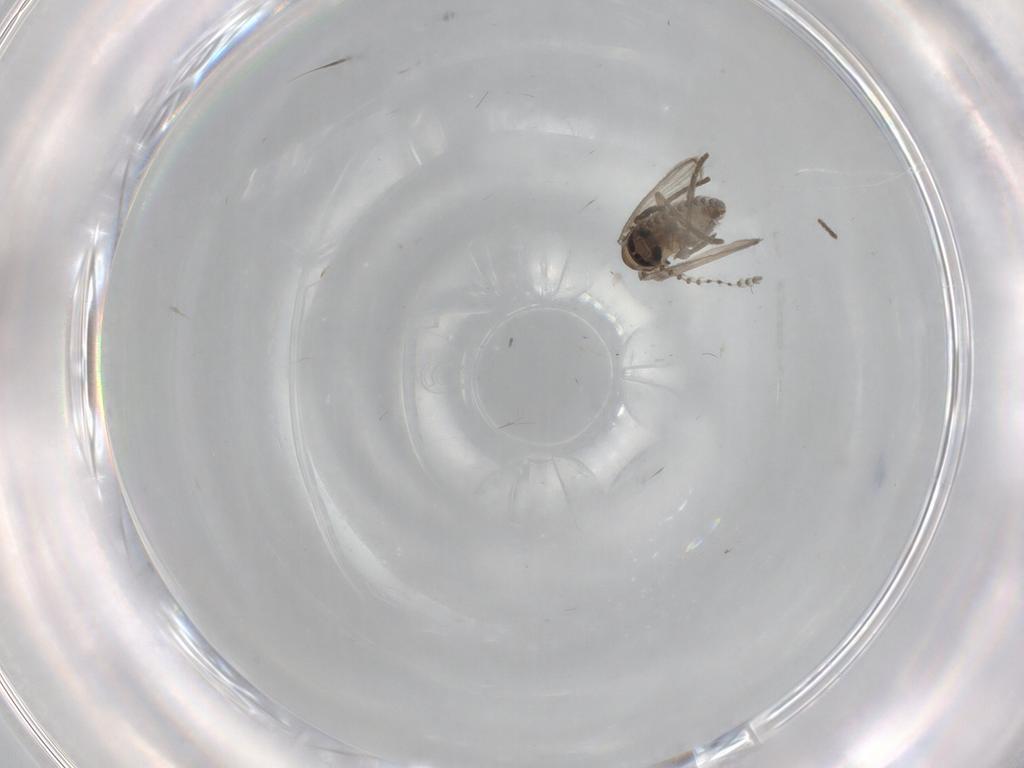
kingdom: Animalia
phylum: Arthropoda
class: Insecta
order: Diptera
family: Psychodidae
